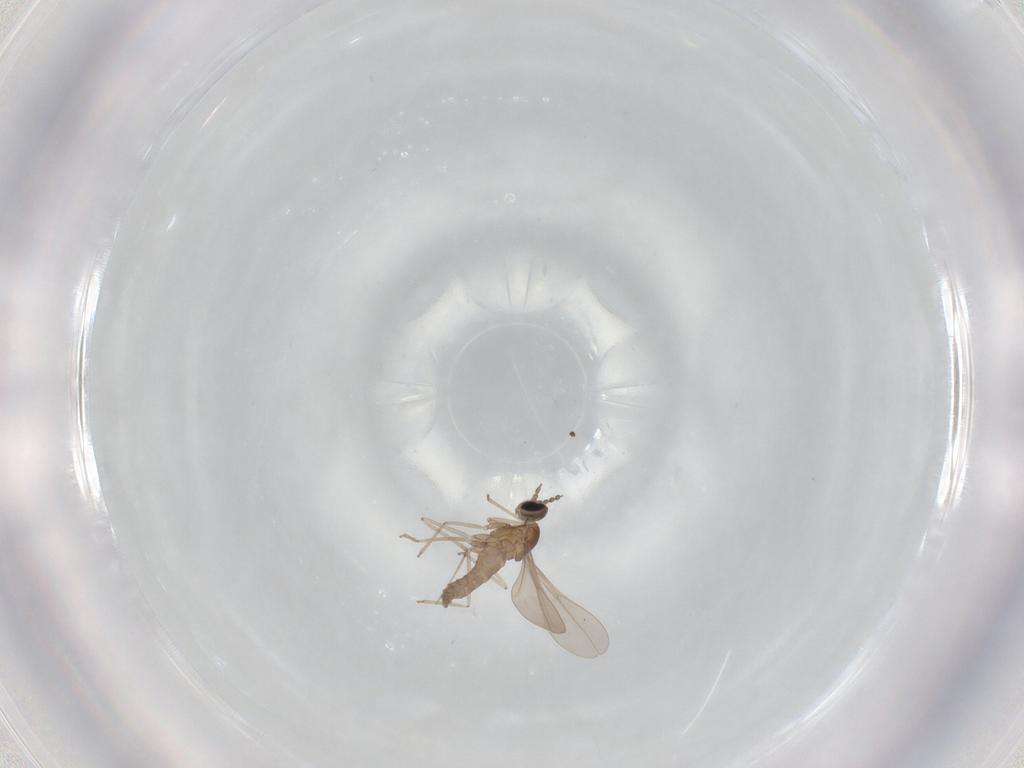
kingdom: Animalia
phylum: Arthropoda
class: Insecta
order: Diptera
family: Cecidomyiidae
